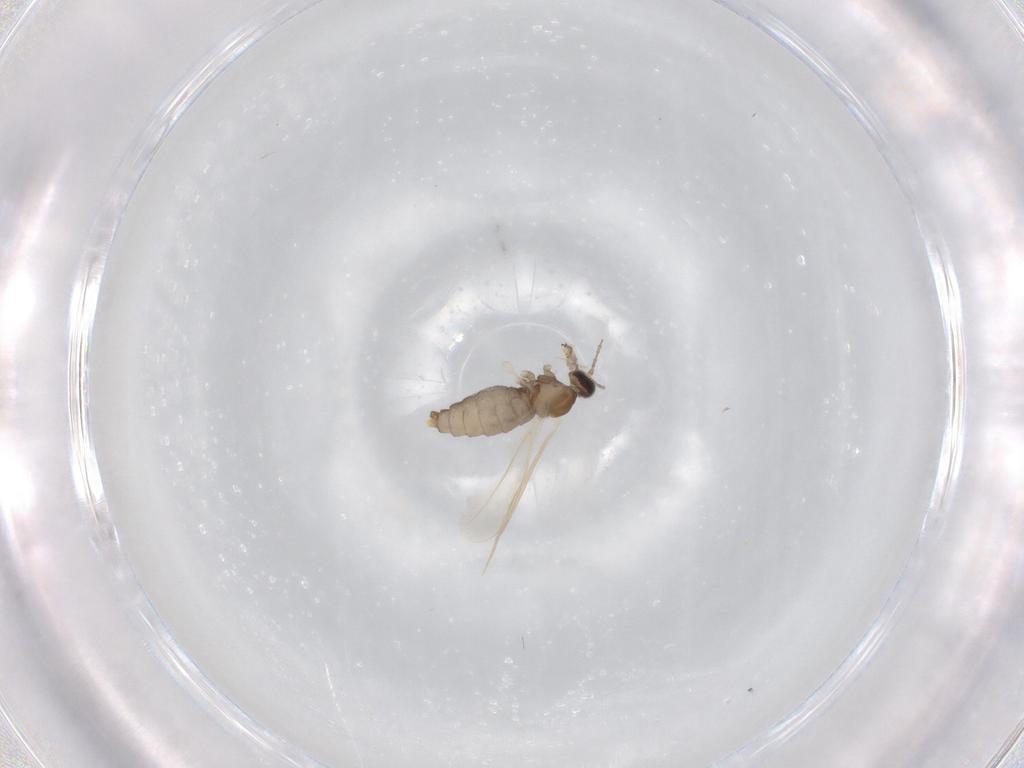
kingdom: Animalia
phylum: Arthropoda
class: Insecta
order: Diptera
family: Cecidomyiidae
